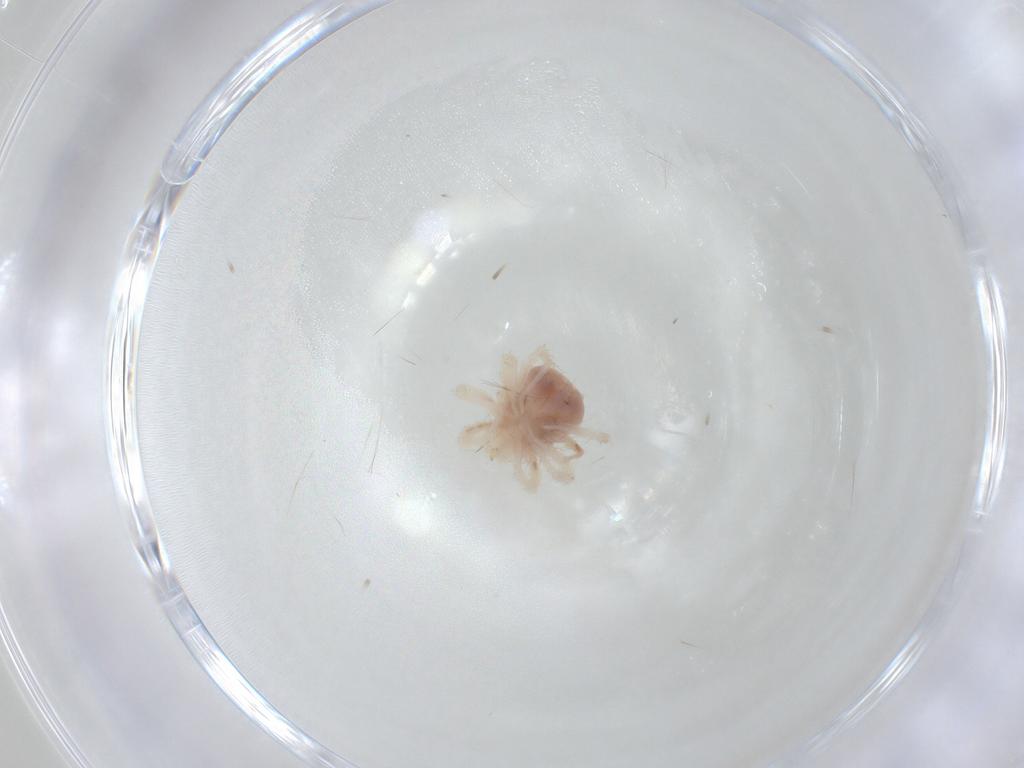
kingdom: Animalia
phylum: Arthropoda
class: Arachnida
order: Trombidiformes
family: Anystidae
